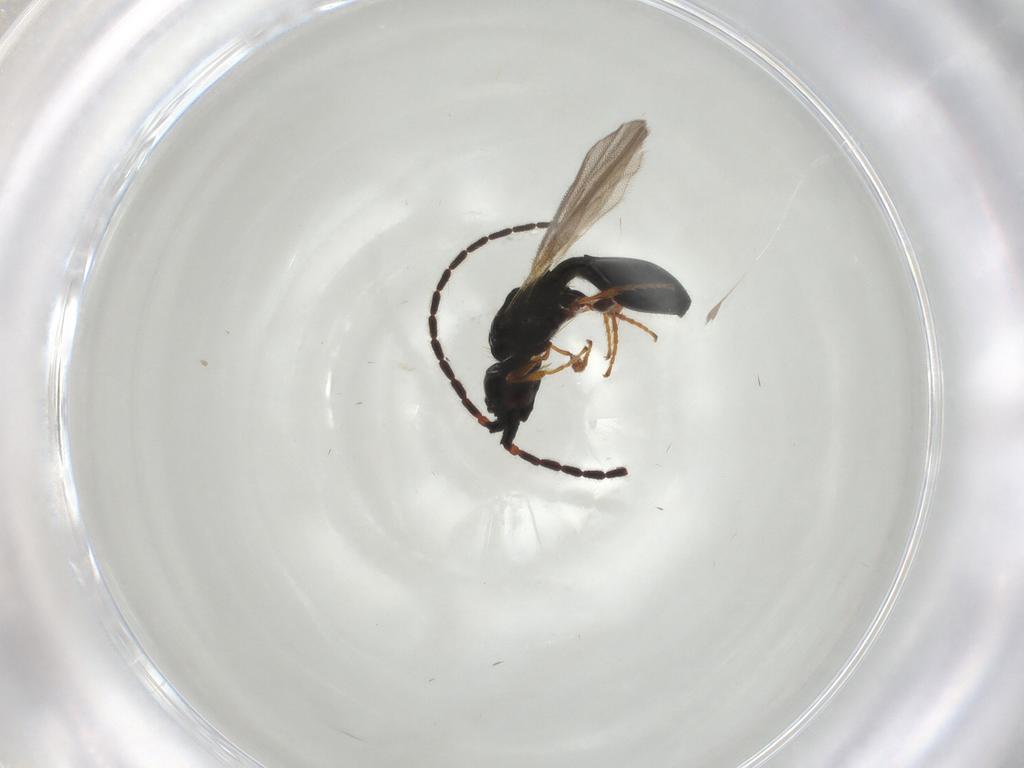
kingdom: Animalia
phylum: Arthropoda
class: Insecta
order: Hymenoptera
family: Diapriidae
